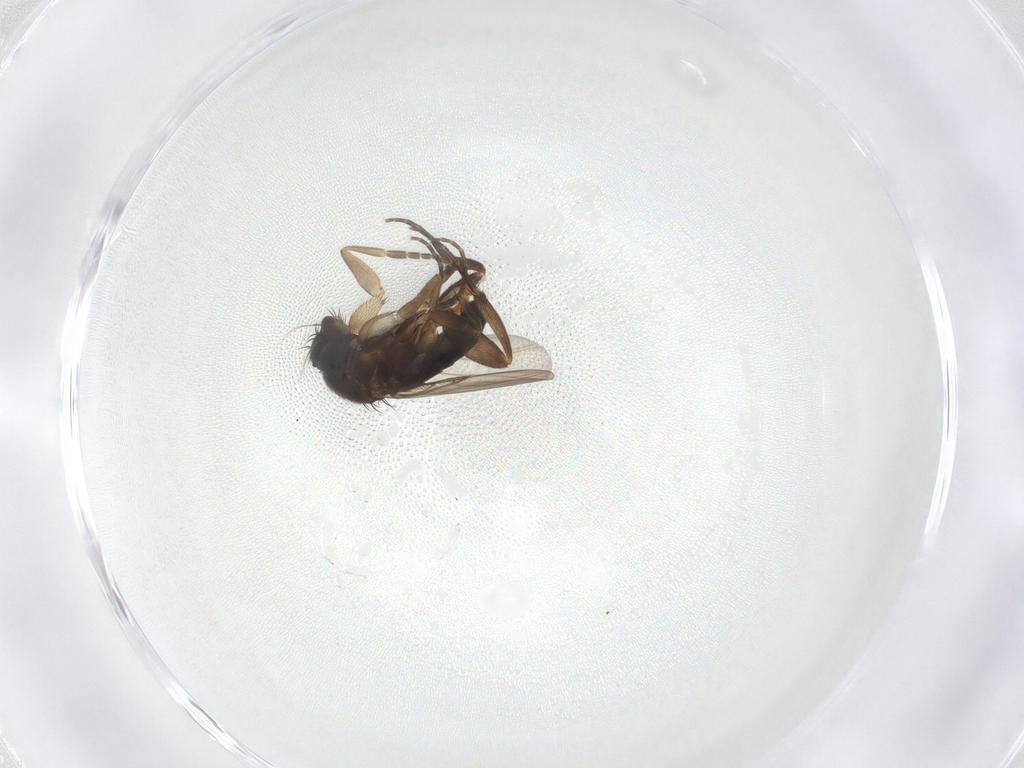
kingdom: Animalia
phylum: Arthropoda
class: Insecta
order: Diptera
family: Phoridae
